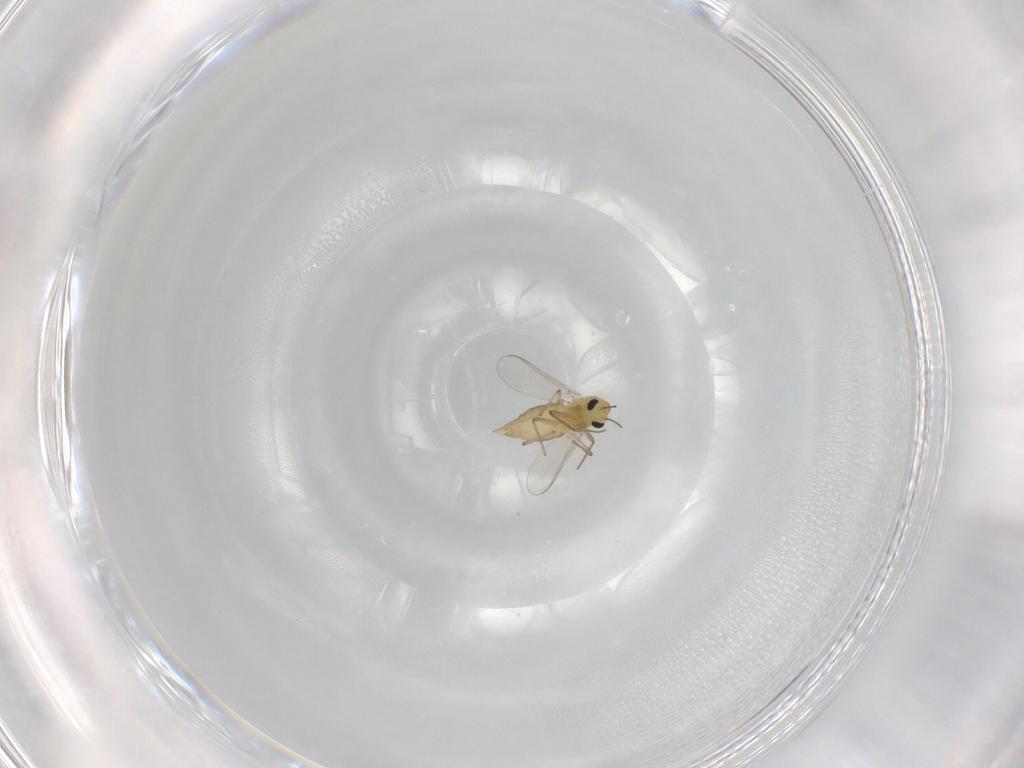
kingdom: Animalia
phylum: Arthropoda
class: Insecta
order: Diptera
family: Chironomidae
